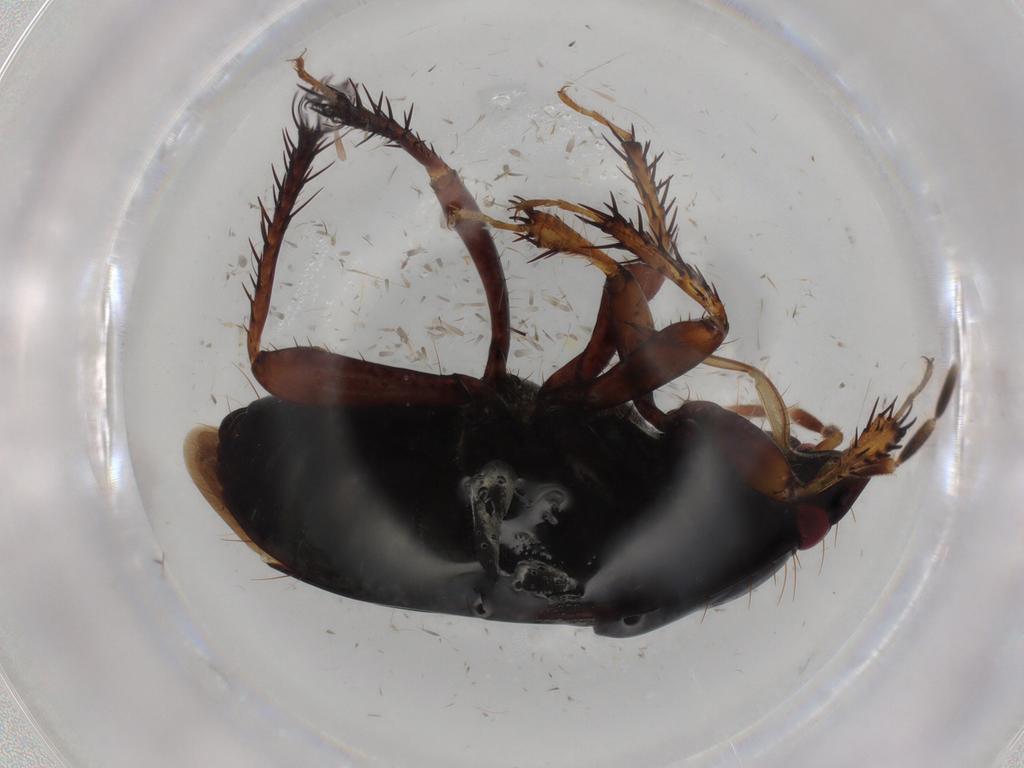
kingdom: Animalia
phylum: Arthropoda
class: Insecta
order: Hemiptera
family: Cydnidae
